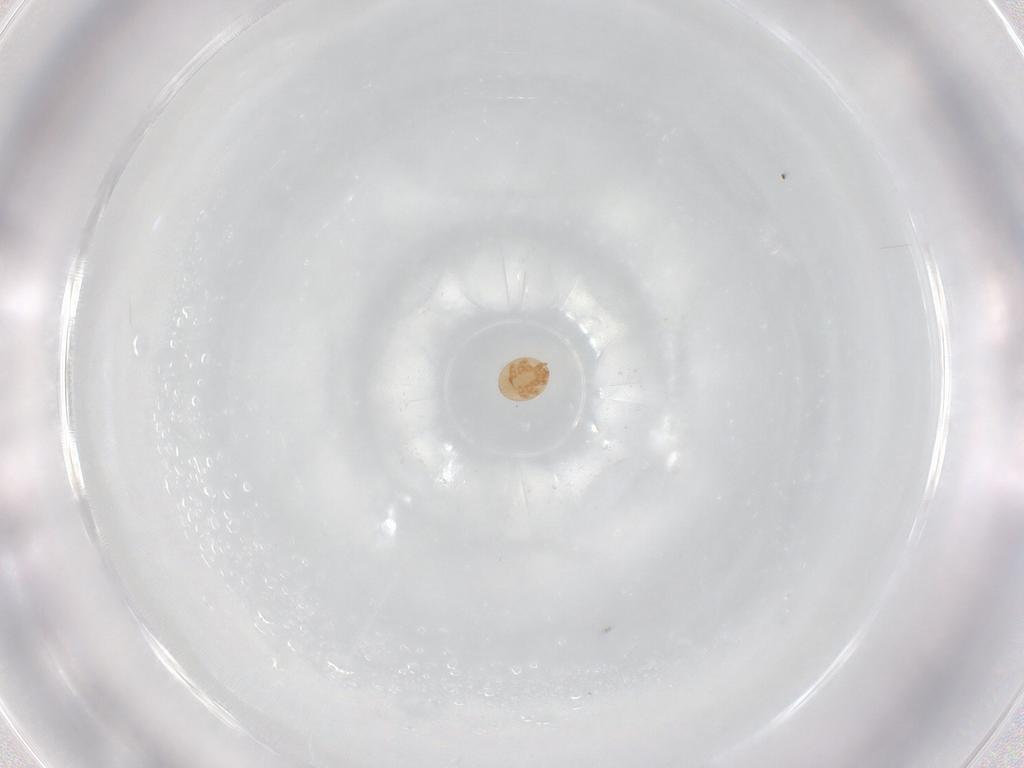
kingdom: Animalia
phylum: Arthropoda
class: Arachnida
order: Mesostigmata
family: Trematuridae
